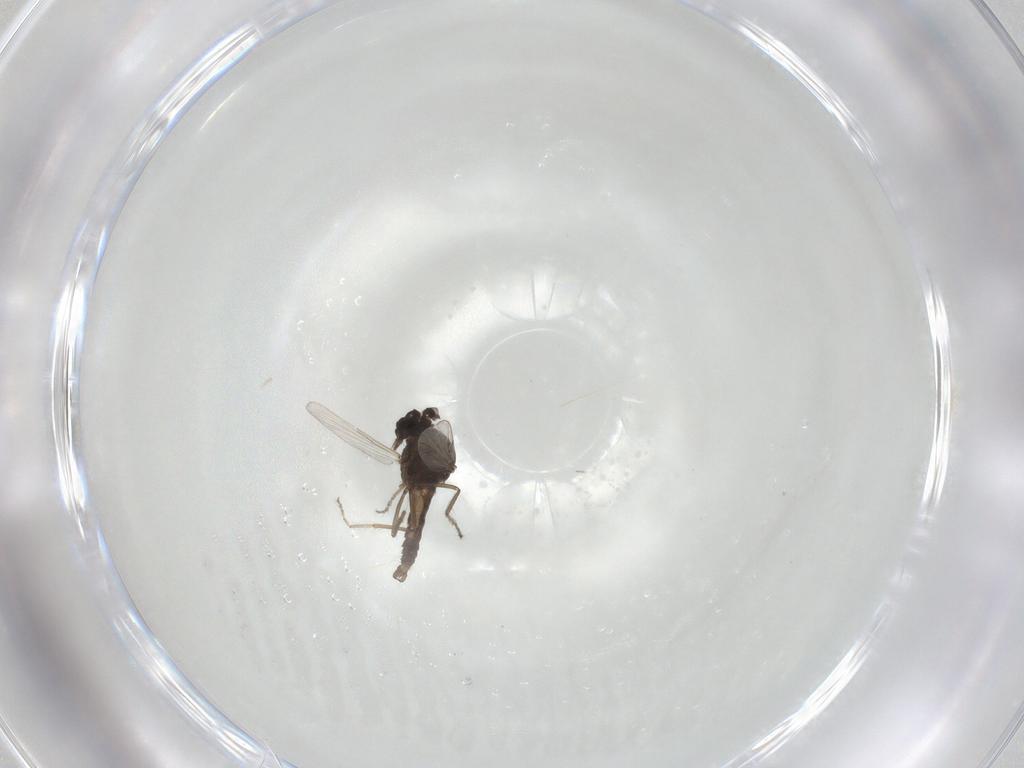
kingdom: Animalia
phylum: Arthropoda
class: Insecta
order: Diptera
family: Ceratopogonidae
